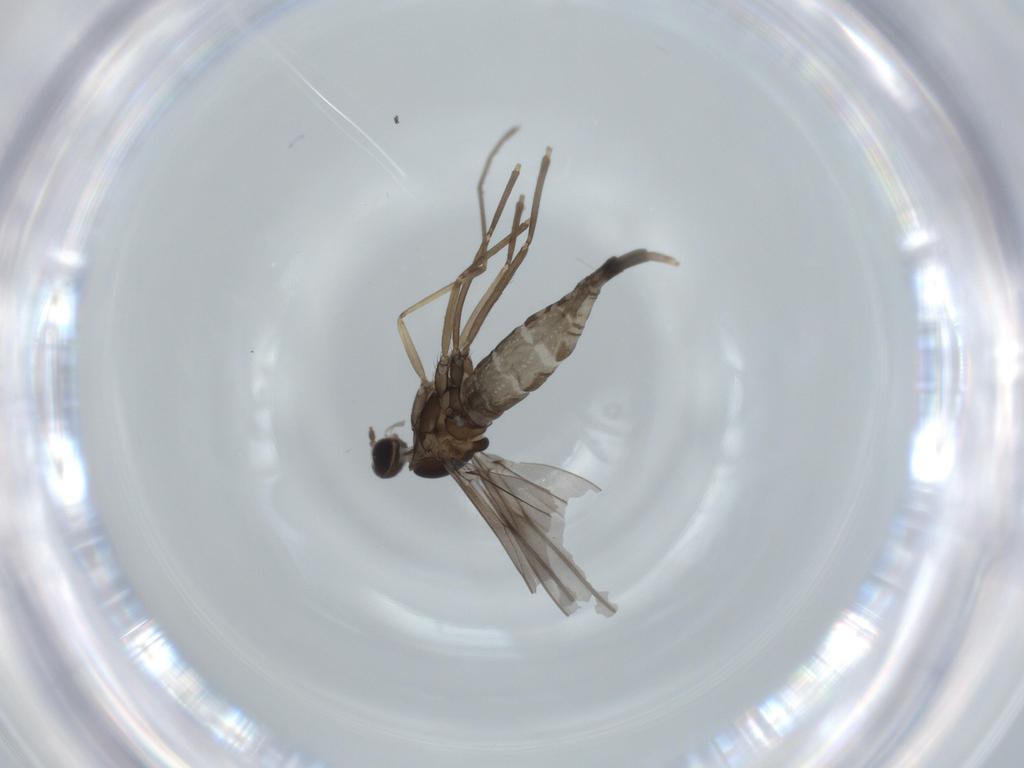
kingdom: Animalia
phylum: Arthropoda
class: Insecta
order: Diptera
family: Cecidomyiidae
